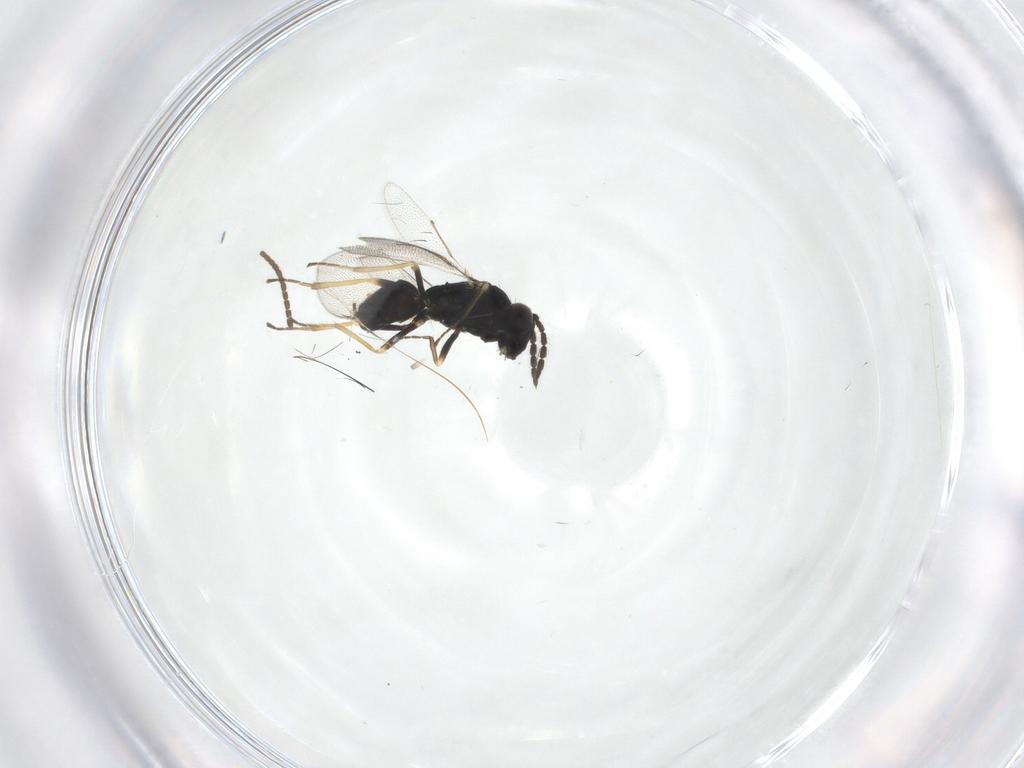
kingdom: Animalia
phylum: Arthropoda
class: Insecta
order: Hymenoptera
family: Eulophidae
